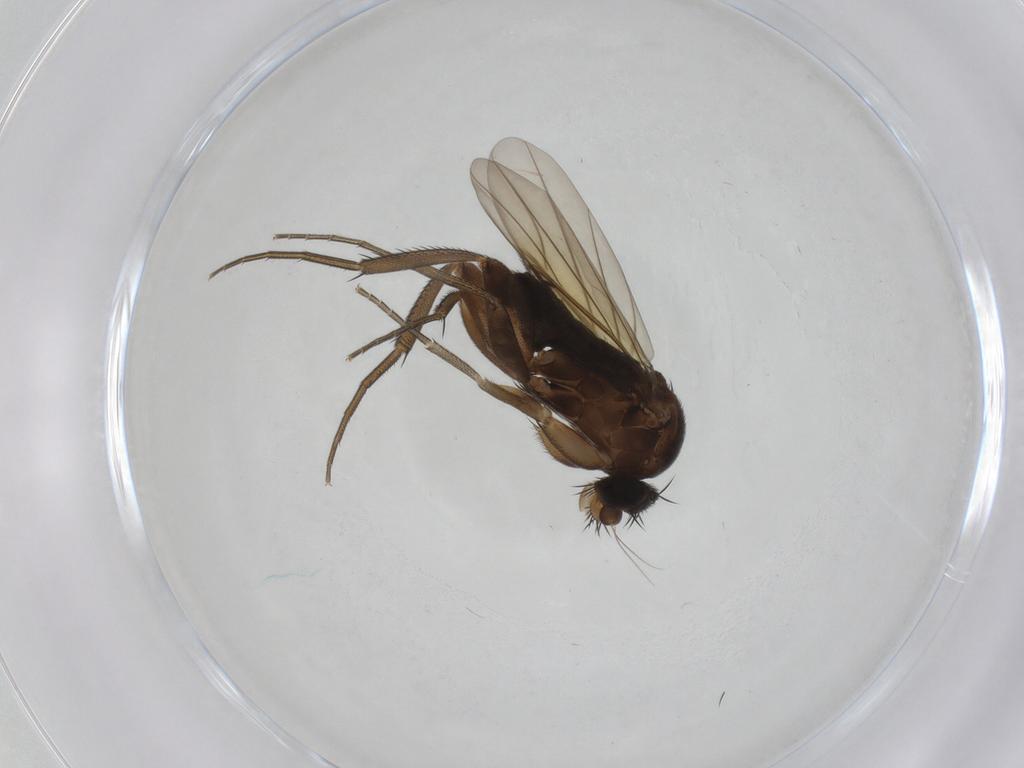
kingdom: Animalia
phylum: Arthropoda
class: Insecta
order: Diptera
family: Phoridae
